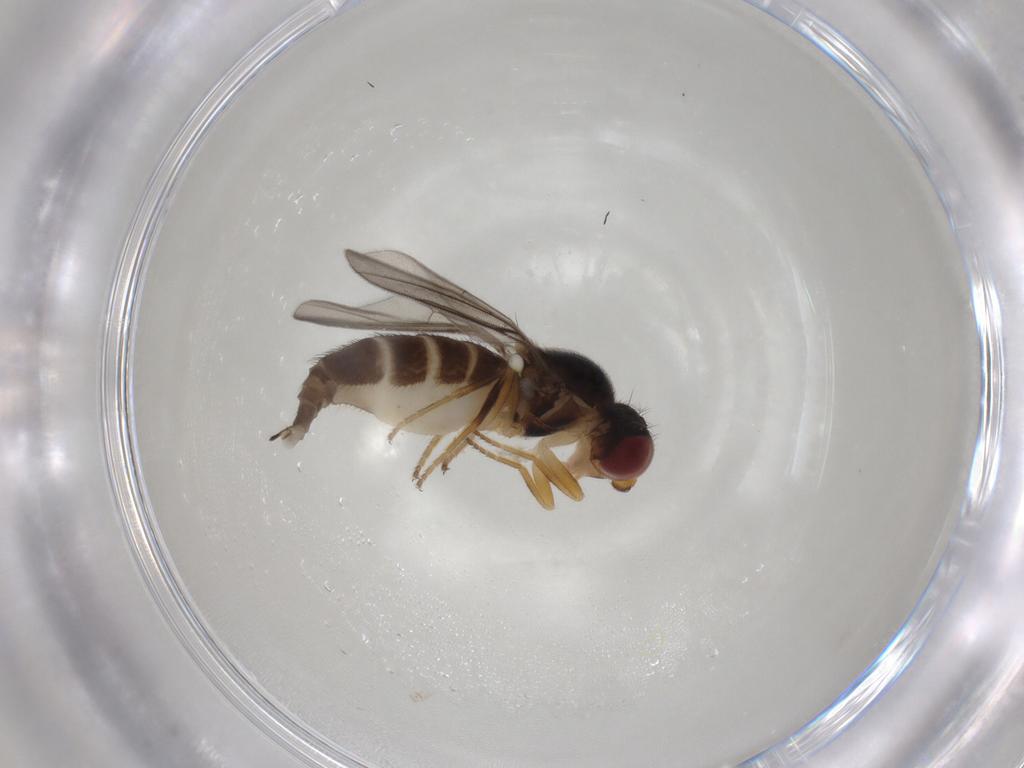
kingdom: Animalia
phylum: Arthropoda
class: Insecta
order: Diptera
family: Chloropidae
